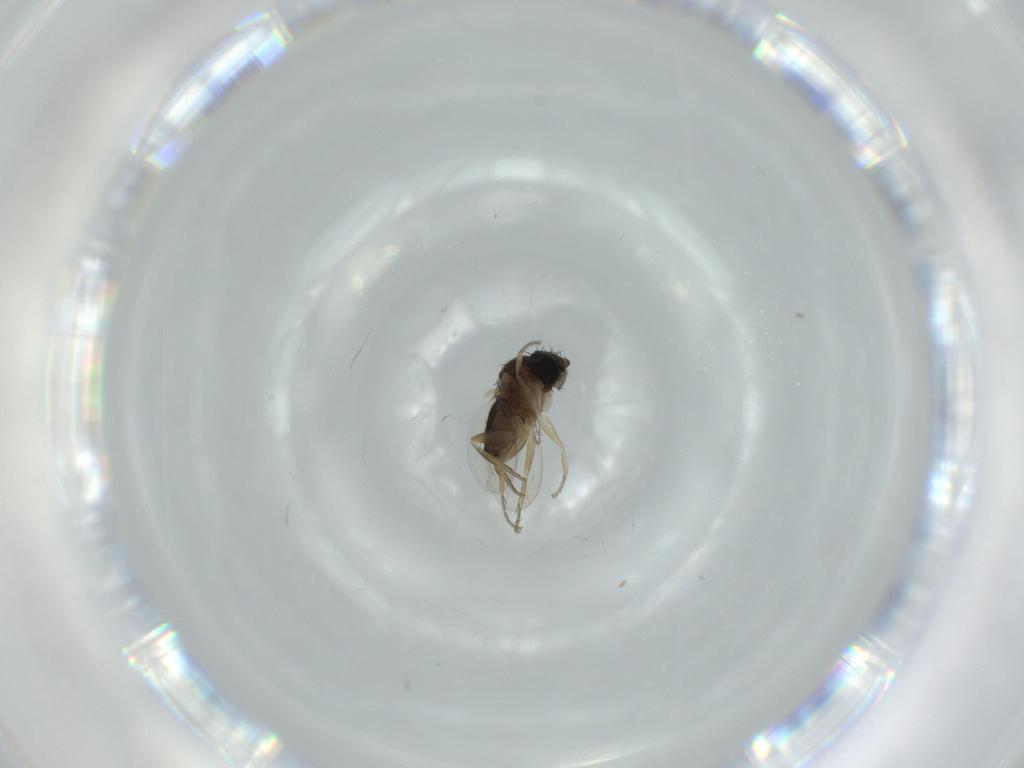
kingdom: Animalia
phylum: Arthropoda
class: Insecta
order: Diptera
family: Phoridae
